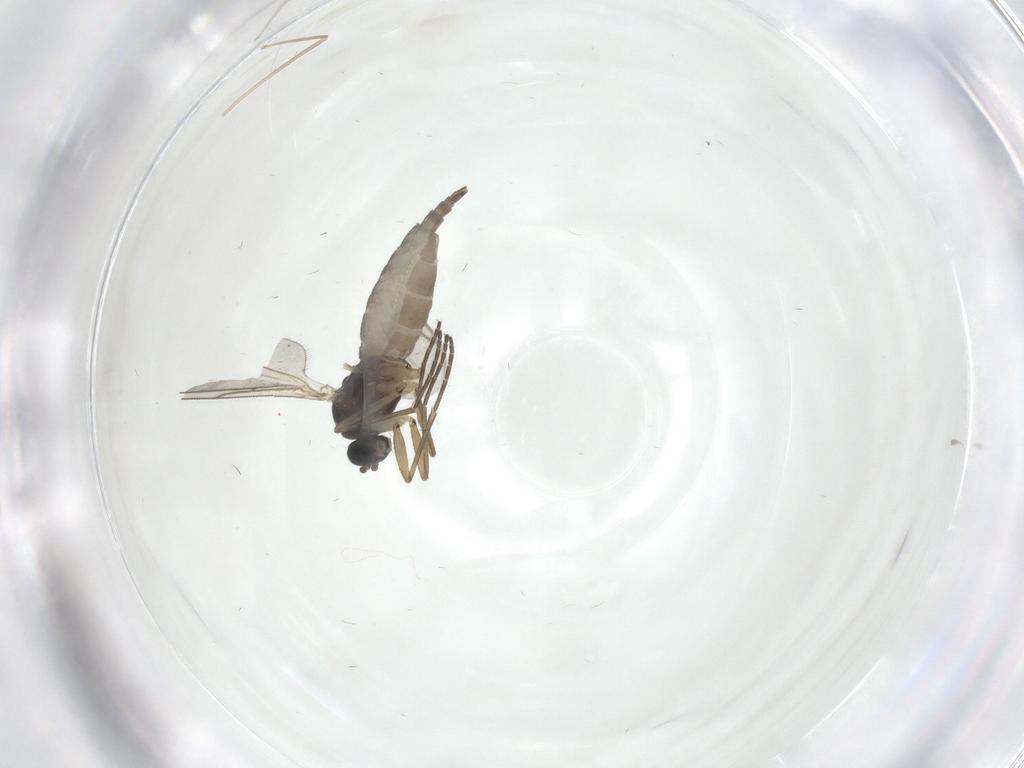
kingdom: Animalia
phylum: Arthropoda
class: Insecta
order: Diptera
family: Sciaridae
